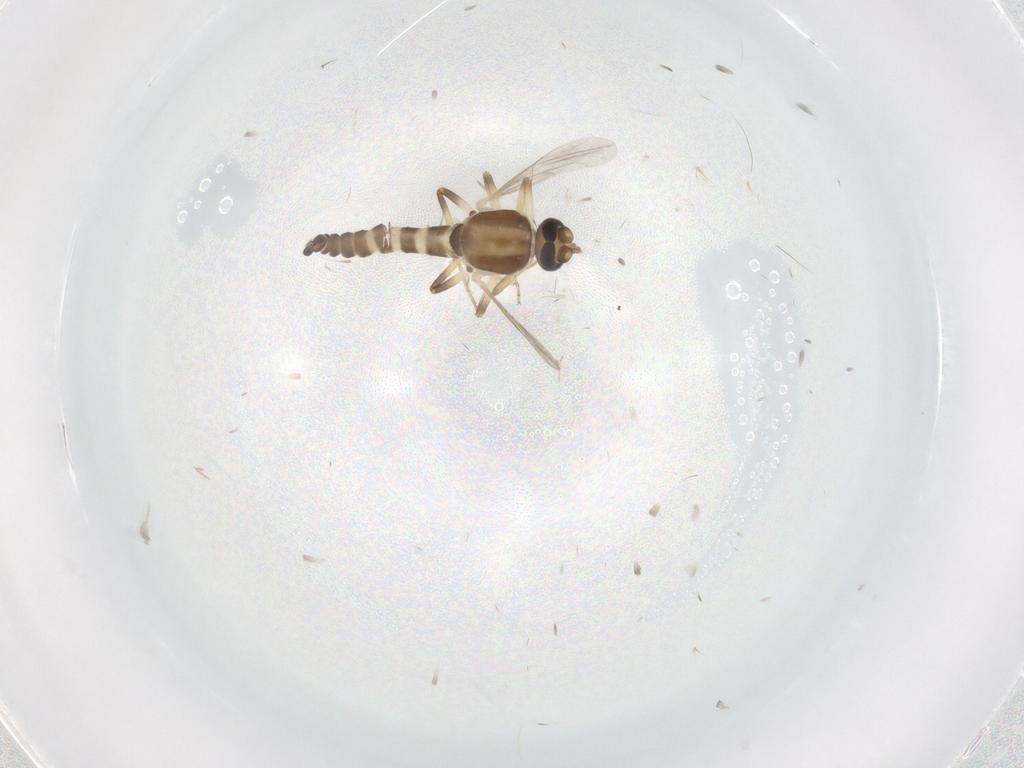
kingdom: Animalia
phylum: Arthropoda
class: Insecta
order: Diptera
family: Ceratopogonidae
